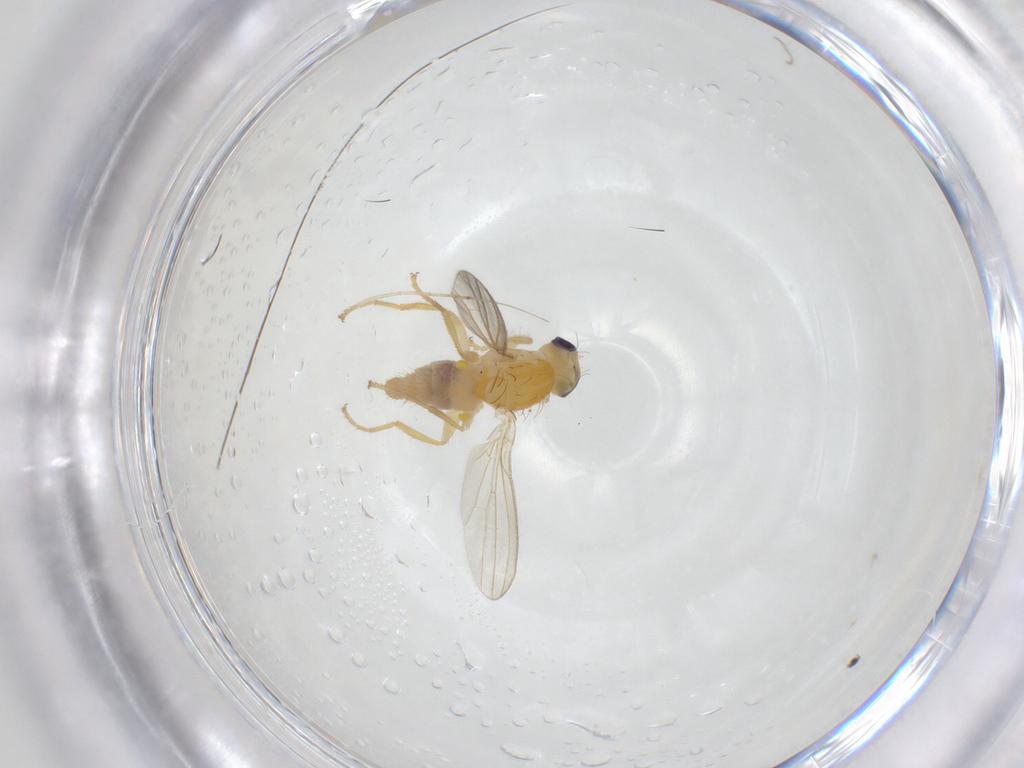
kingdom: Animalia
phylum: Arthropoda
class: Insecta
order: Diptera
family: Chyromyidae
